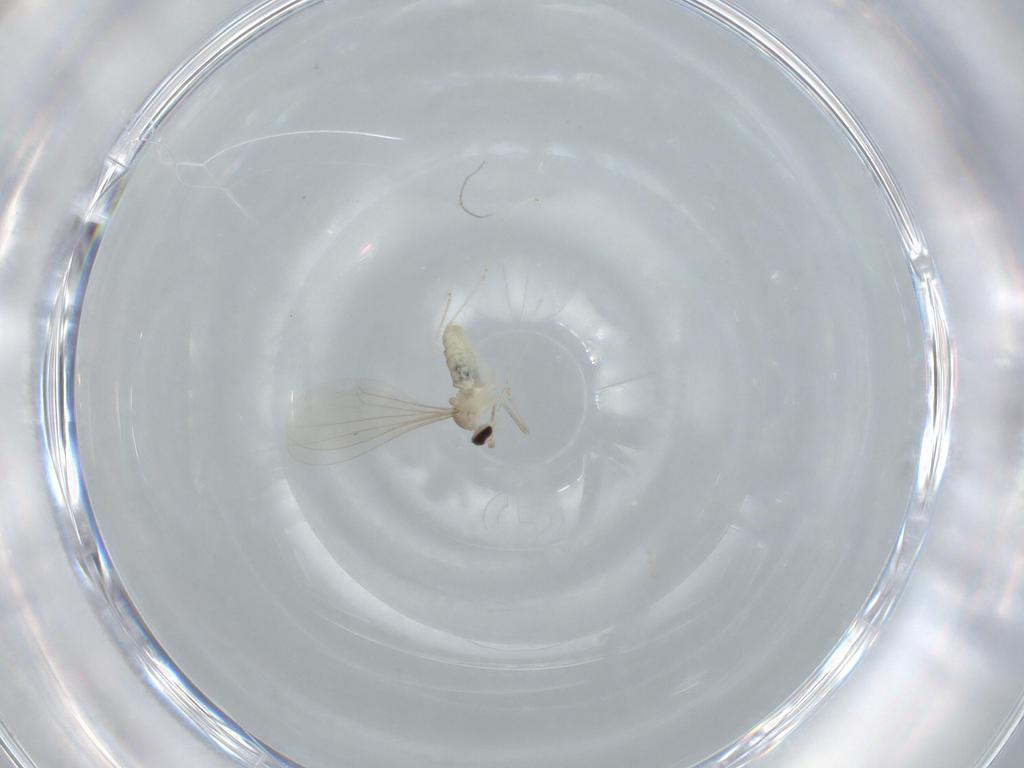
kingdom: Animalia
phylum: Arthropoda
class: Insecta
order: Diptera
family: Cecidomyiidae
